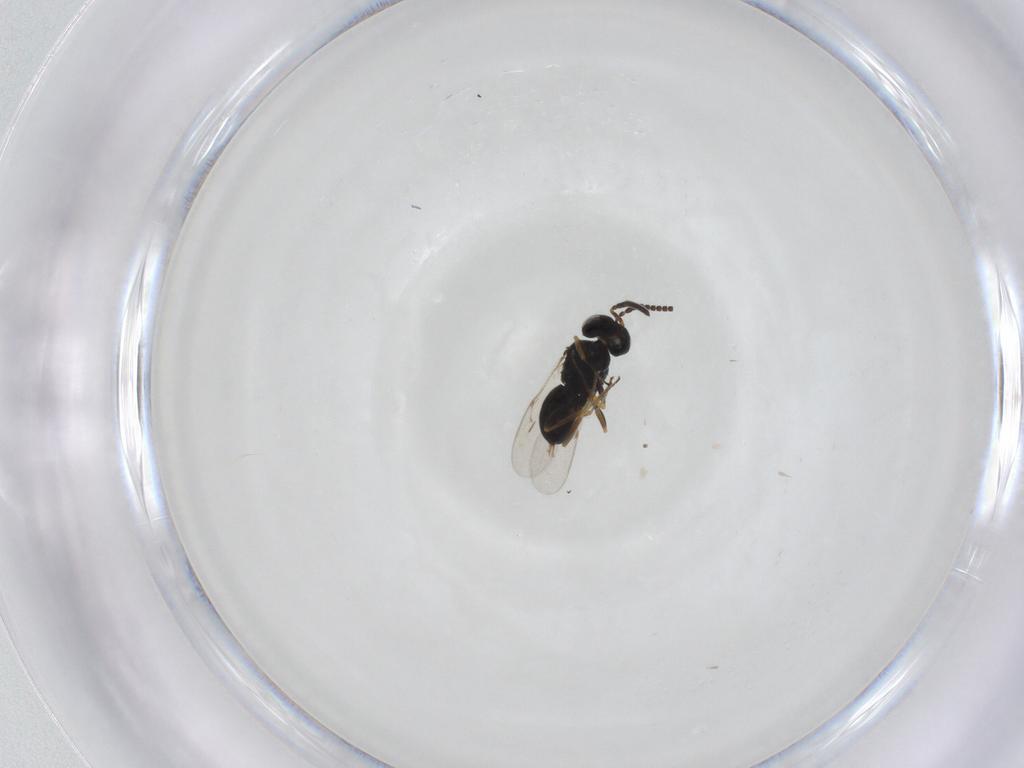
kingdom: Animalia
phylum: Arthropoda
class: Insecta
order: Hymenoptera
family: Scelionidae
